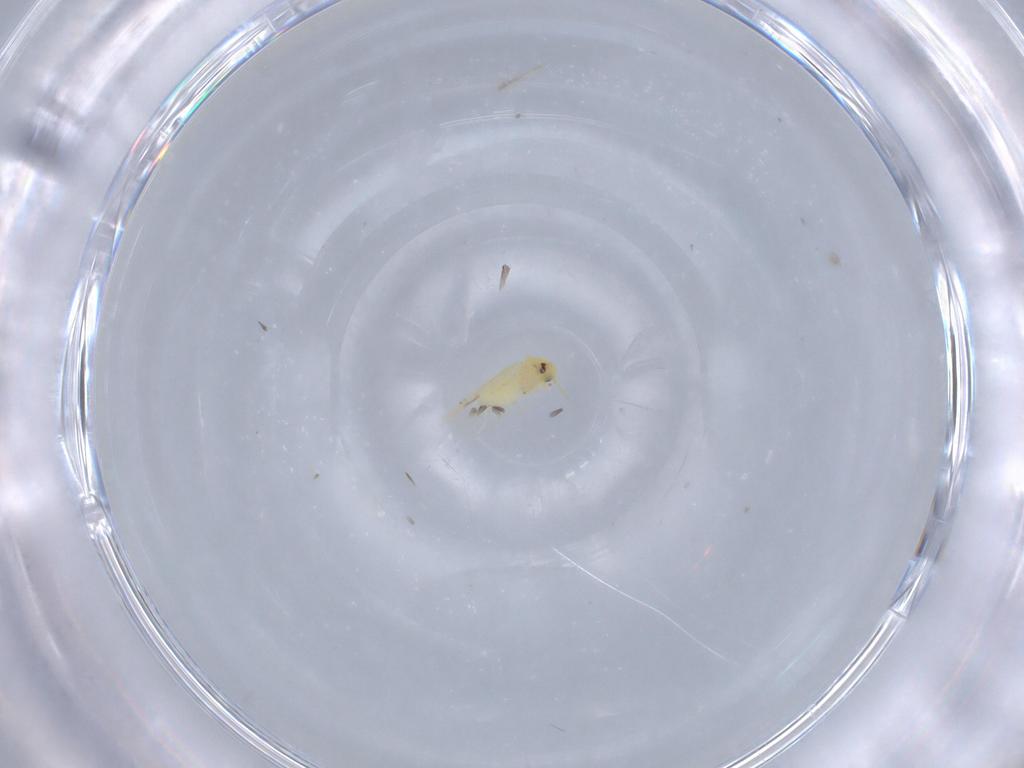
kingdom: Animalia
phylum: Arthropoda
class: Insecta
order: Hemiptera
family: Aleyrodidae
